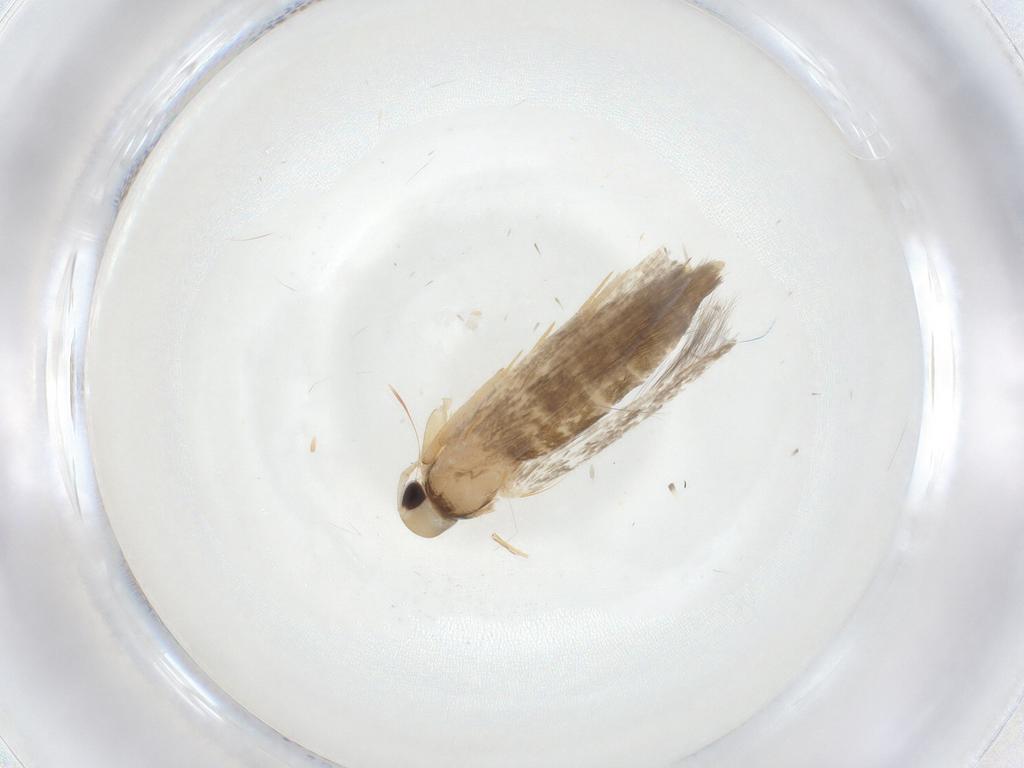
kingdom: Animalia
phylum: Arthropoda
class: Insecta
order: Lepidoptera
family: Cosmopterigidae
